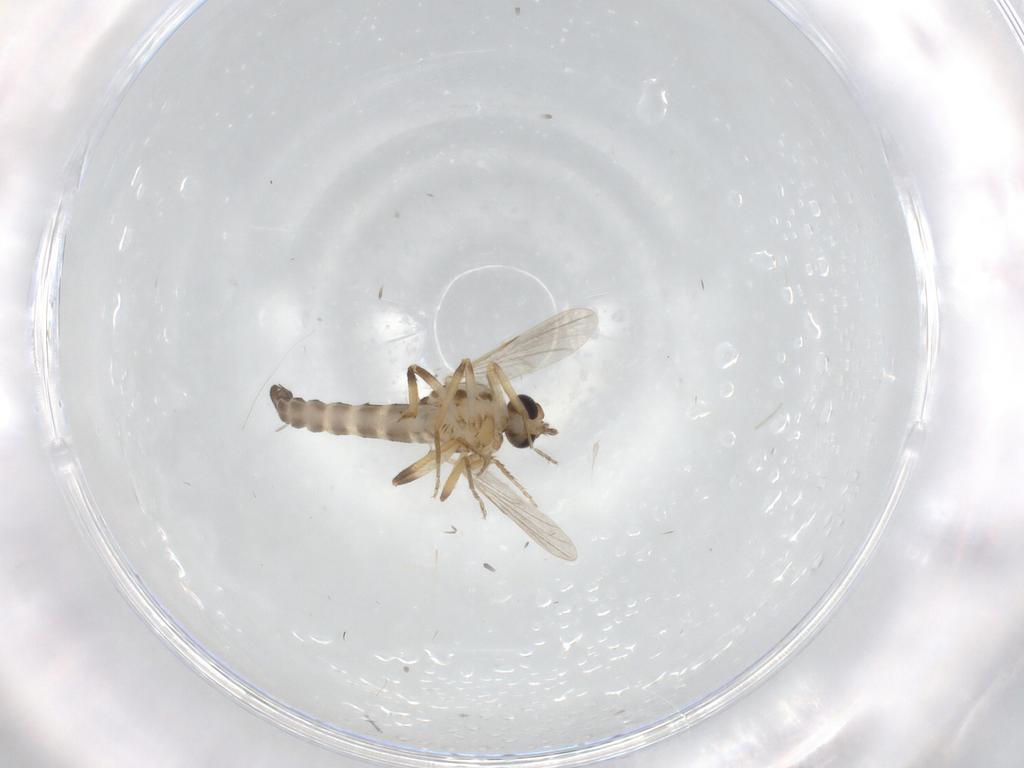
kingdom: Animalia
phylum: Arthropoda
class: Insecta
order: Diptera
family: Ceratopogonidae
